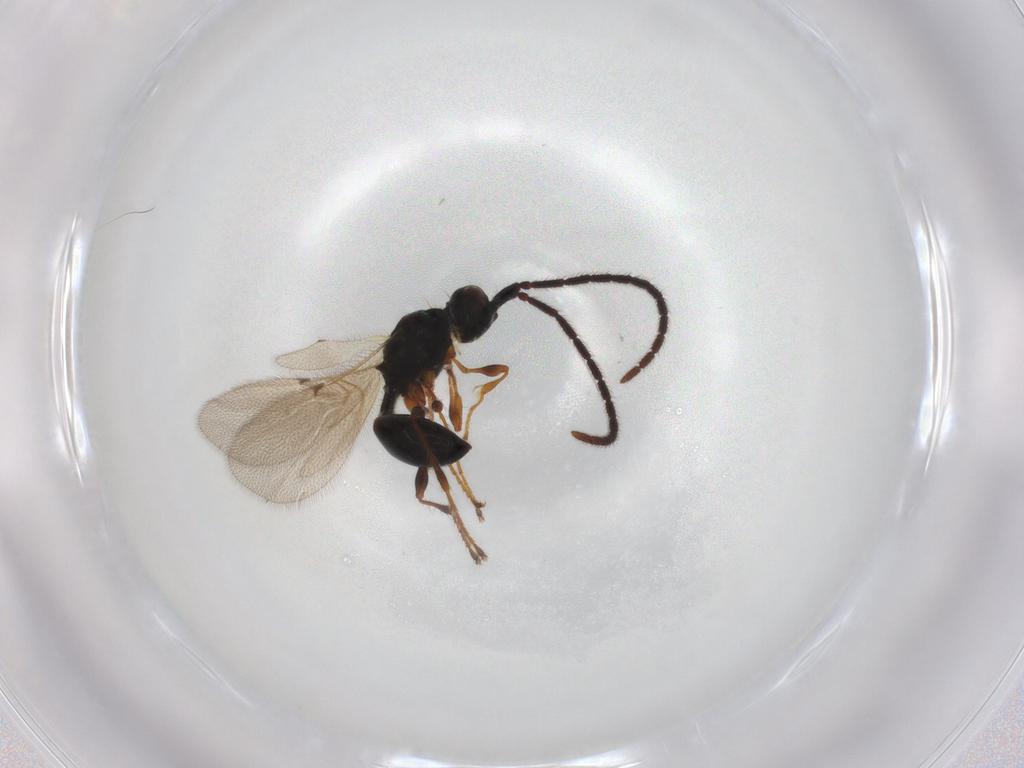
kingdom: Animalia
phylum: Arthropoda
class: Insecta
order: Hymenoptera
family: Diapriidae
